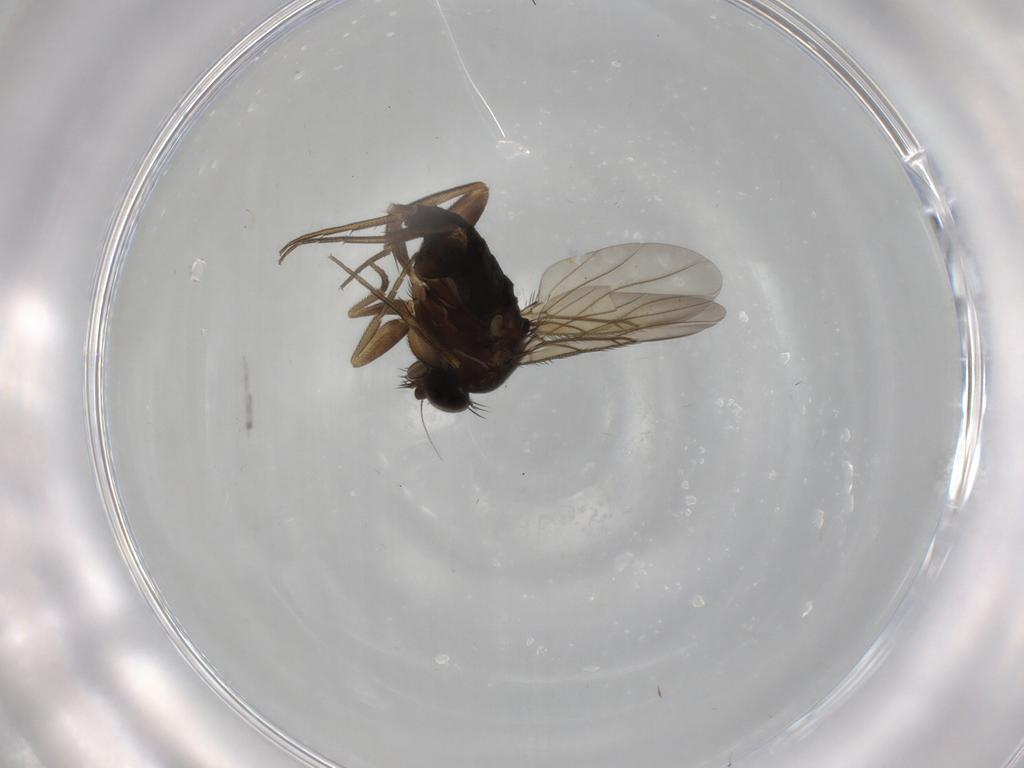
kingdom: Animalia
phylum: Arthropoda
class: Insecta
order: Diptera
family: Phoridae
